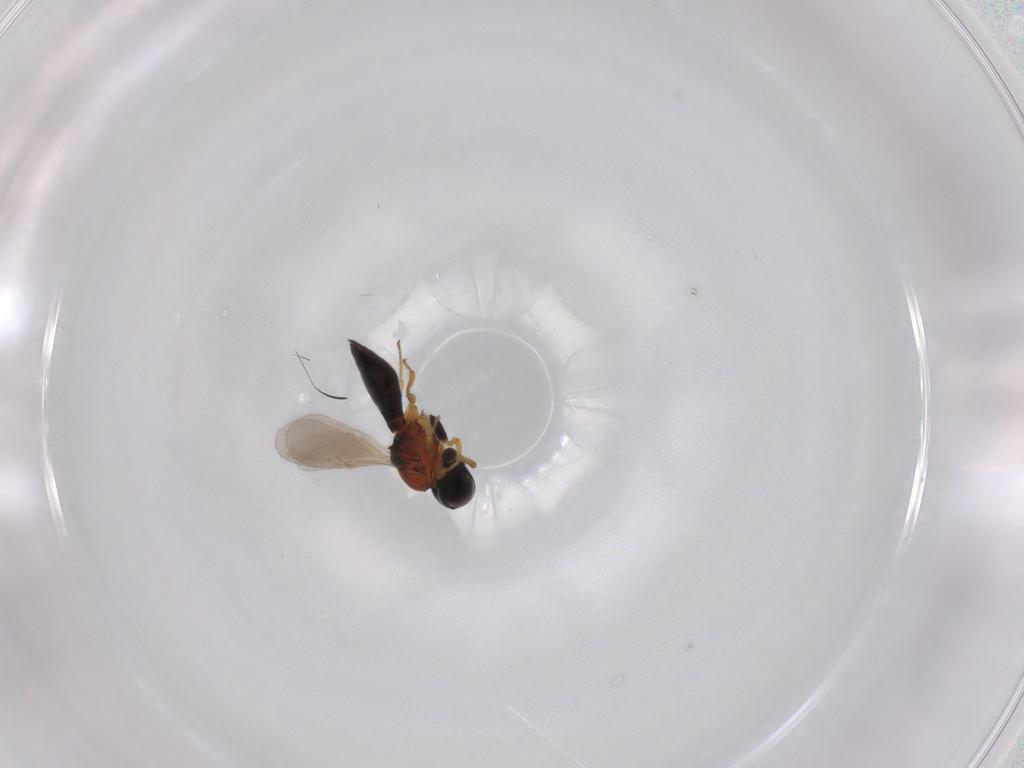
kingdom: Animalia
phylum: Arthropoda
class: Insecta
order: Hymenoptera
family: Scelionidae
